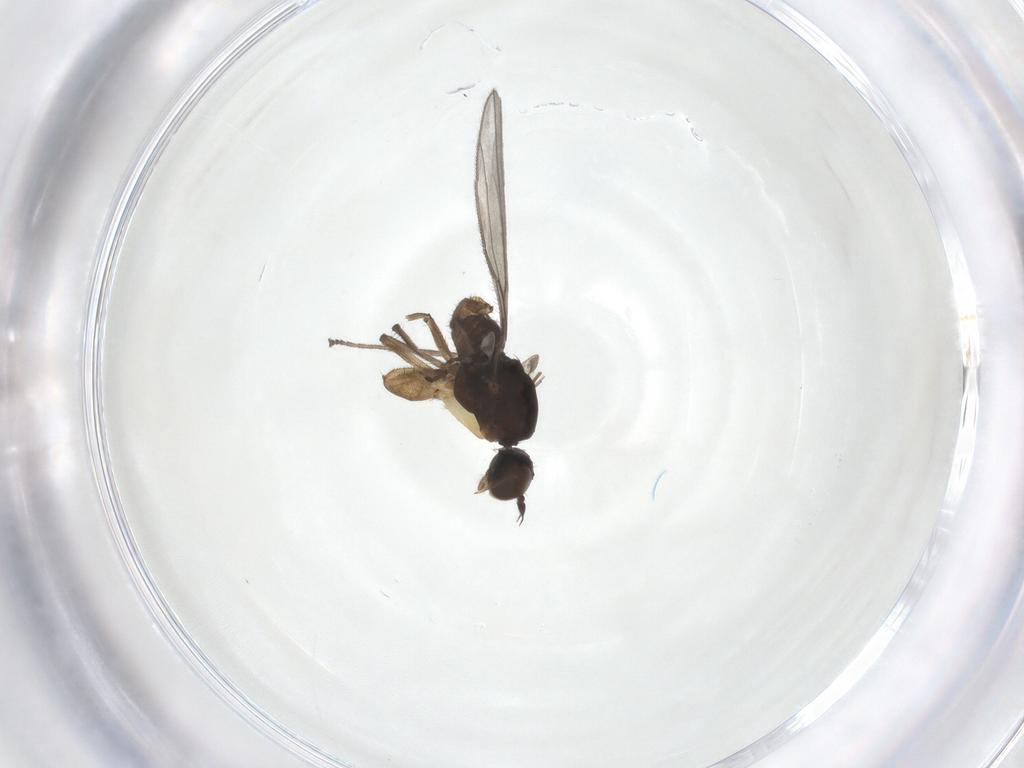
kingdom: Animalia
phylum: Arthropoda
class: Insecta
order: Diptera
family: Empididae
